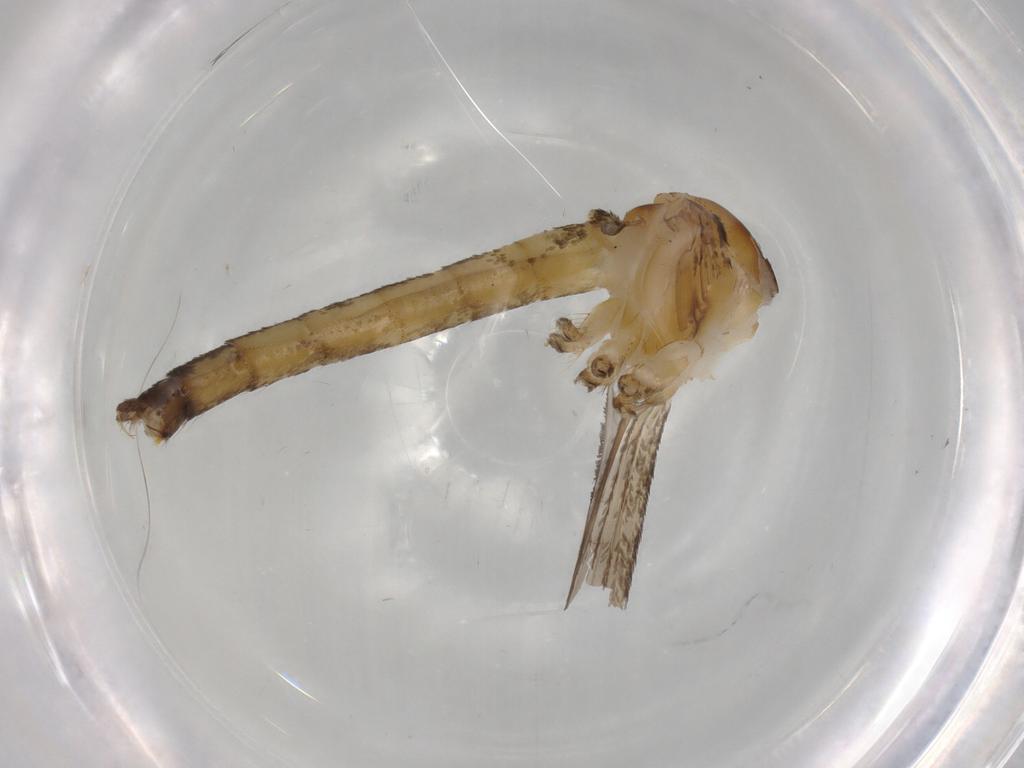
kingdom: Animalia
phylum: Arthropoda
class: Insecta
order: Diptera
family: Culicidae
